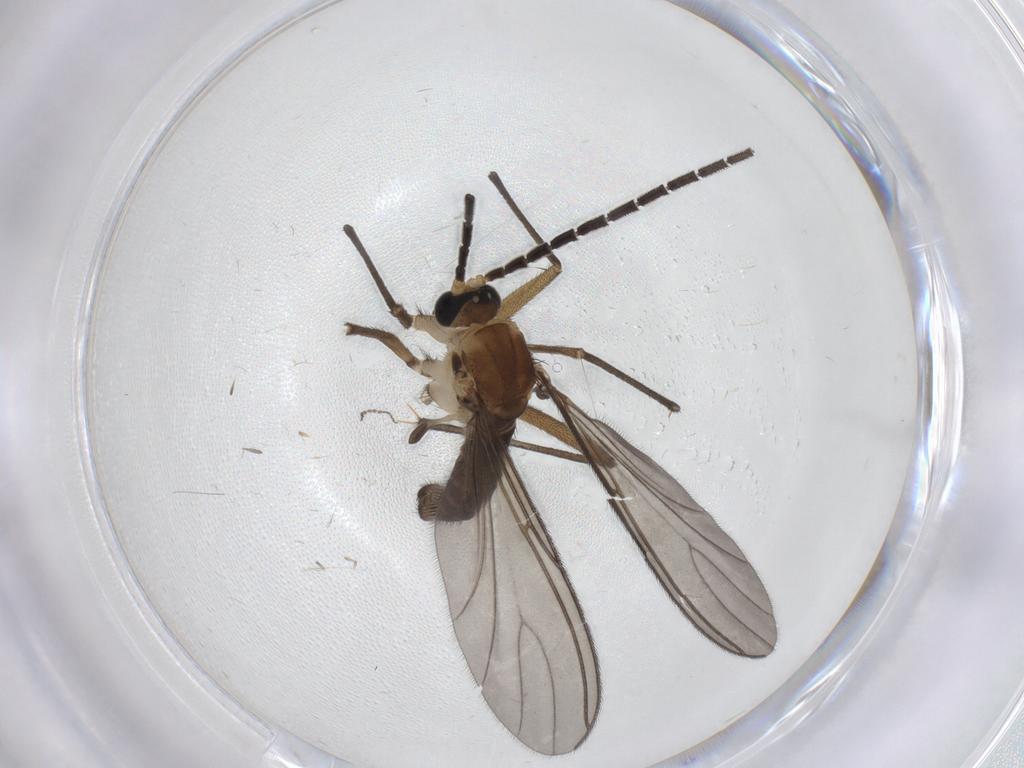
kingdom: Animalia
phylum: Arthropoda
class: Insecta
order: Diptera
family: Sciaridae
